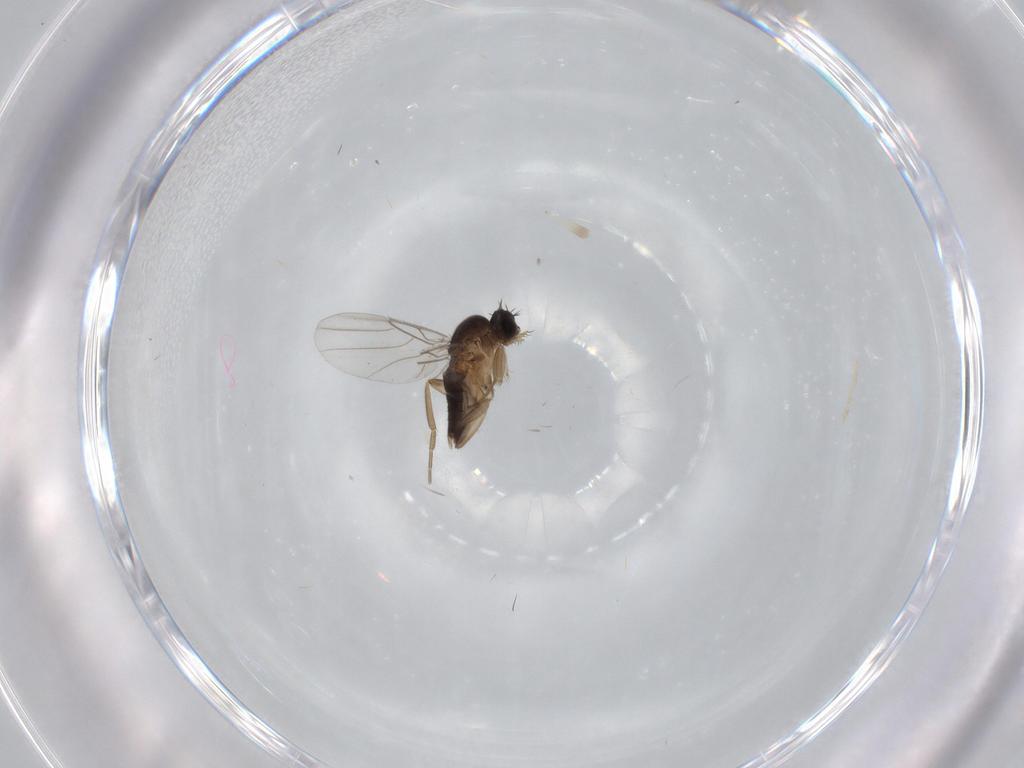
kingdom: Animalia
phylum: Arthropoda
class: Insecta
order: Diptera
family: Phoridae
